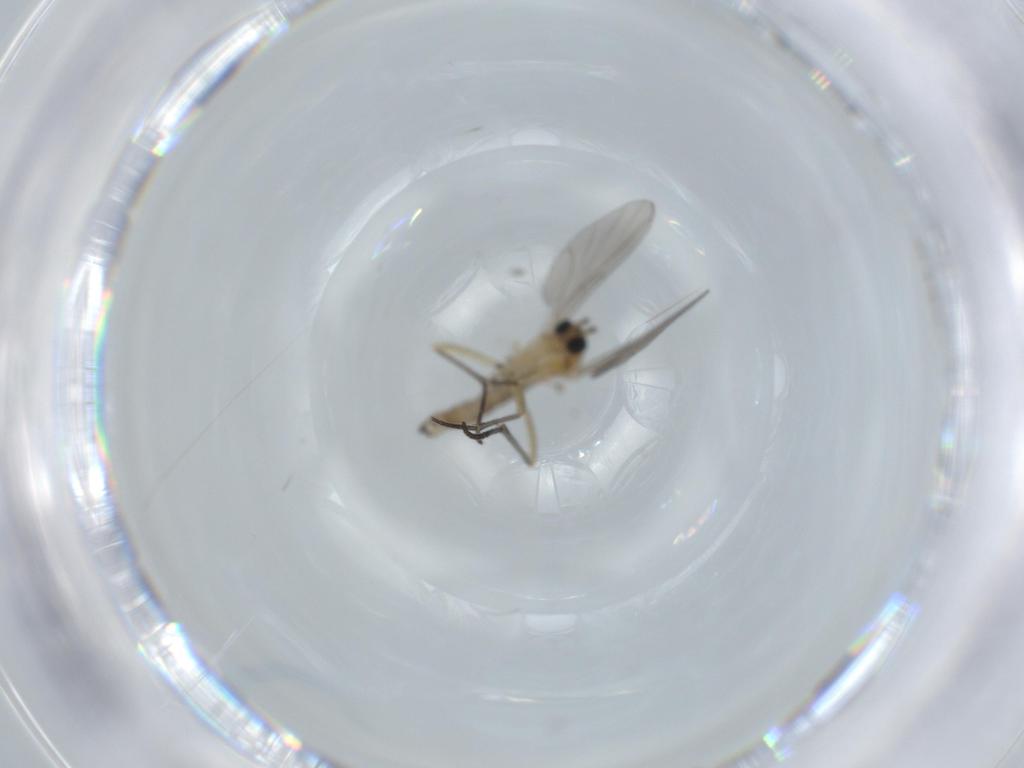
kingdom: Animalia
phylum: Arthropoda
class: Insecta
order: Diptera
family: Sciaridae
